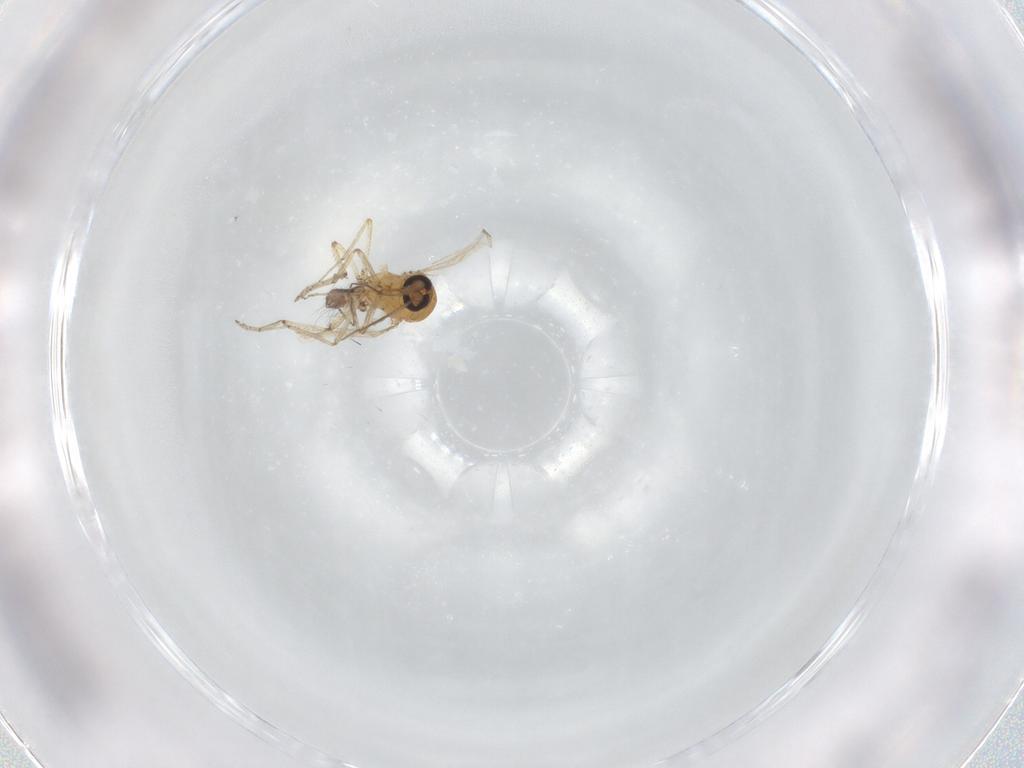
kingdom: Animalia
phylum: Arthropoda
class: Insecta
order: Diptera
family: Ceratopogonidae
